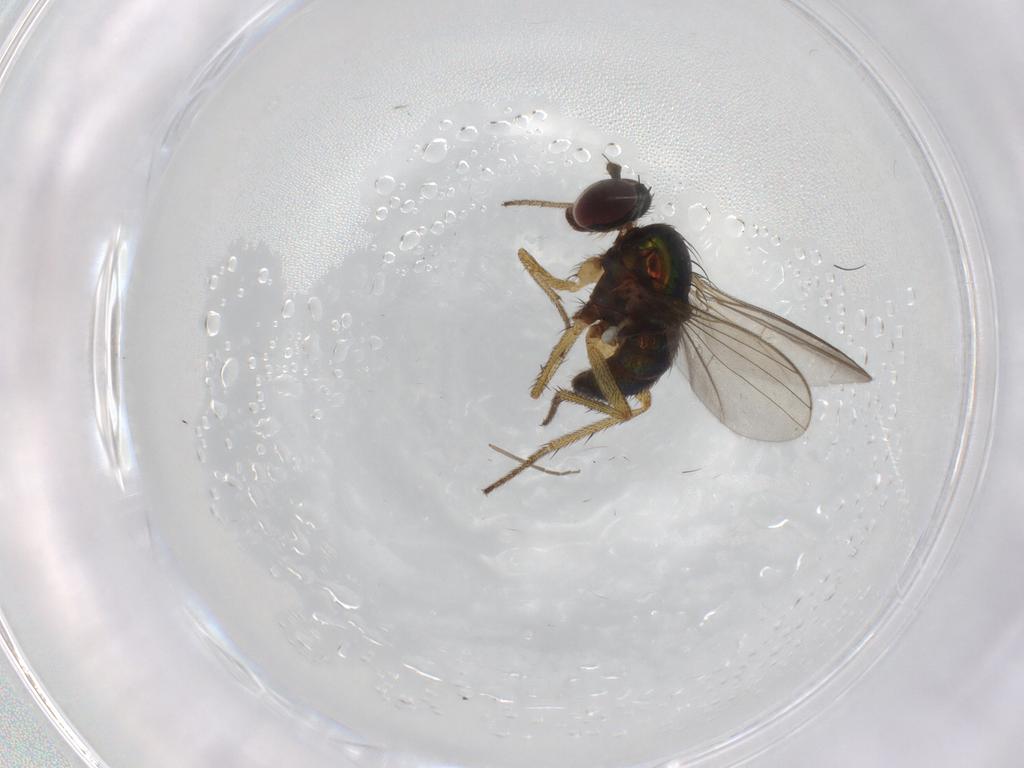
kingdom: Animalia
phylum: Arthropoda
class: Insecta
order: Diptera
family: Chironomidae
